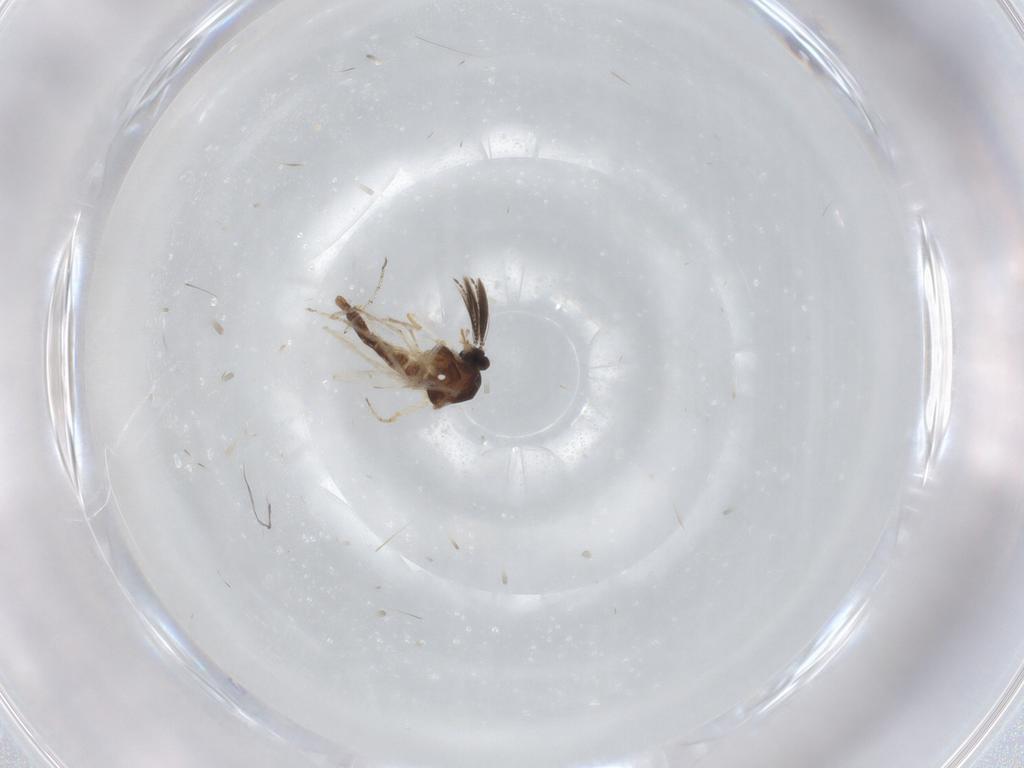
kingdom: Animalia
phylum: Arthropoda
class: Insecta
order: Diptera
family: Ceratopogonidae
